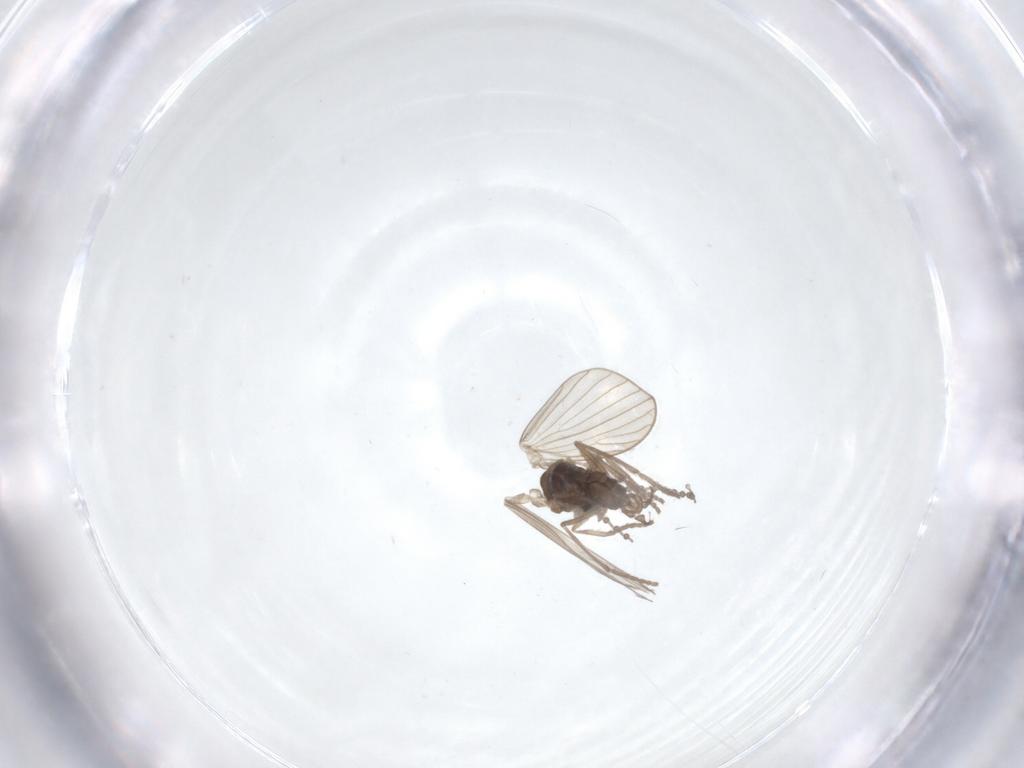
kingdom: Animalia
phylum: Arthropoda
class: Insecta
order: Diptera
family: Psychodidae
